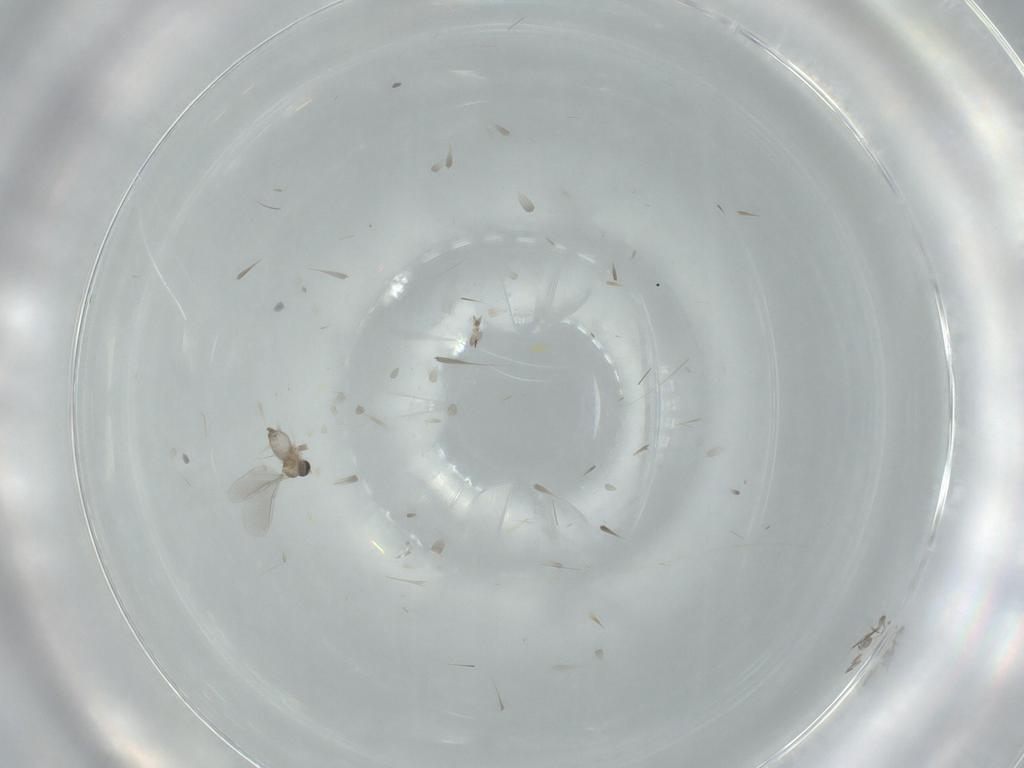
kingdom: Animalia
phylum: Arthropoda
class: Insecta
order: Diptera
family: Cecidomyiidae
